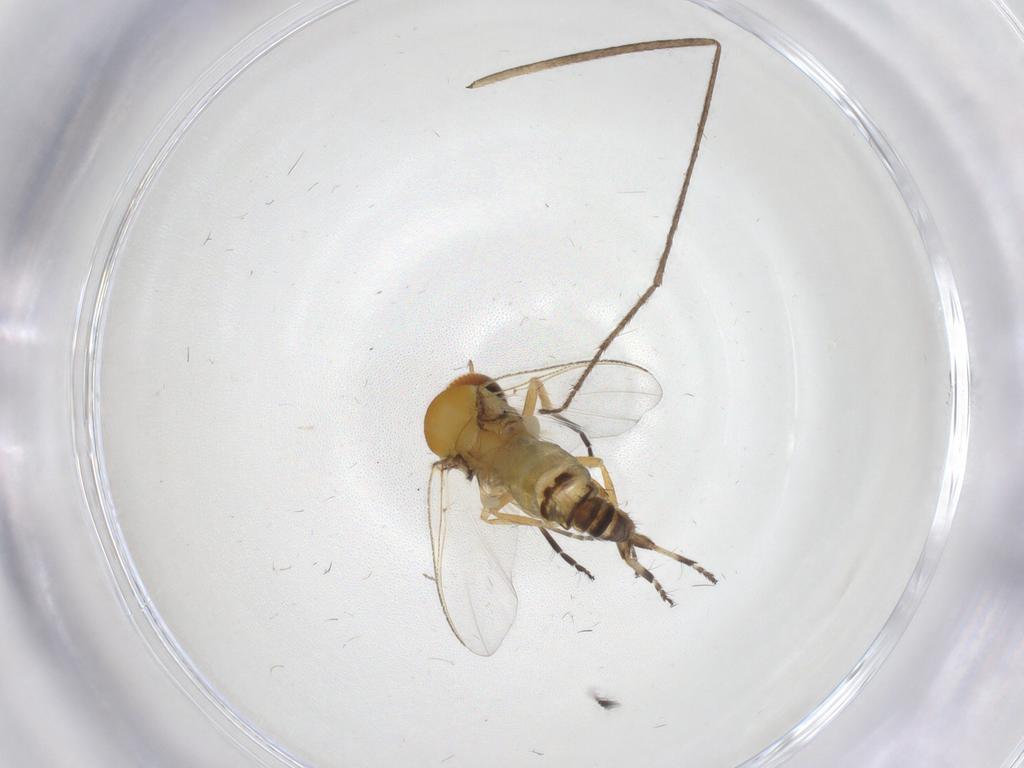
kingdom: Animalia
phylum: Arthropoda
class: Insecta
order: Diptera
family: Simuliidae
